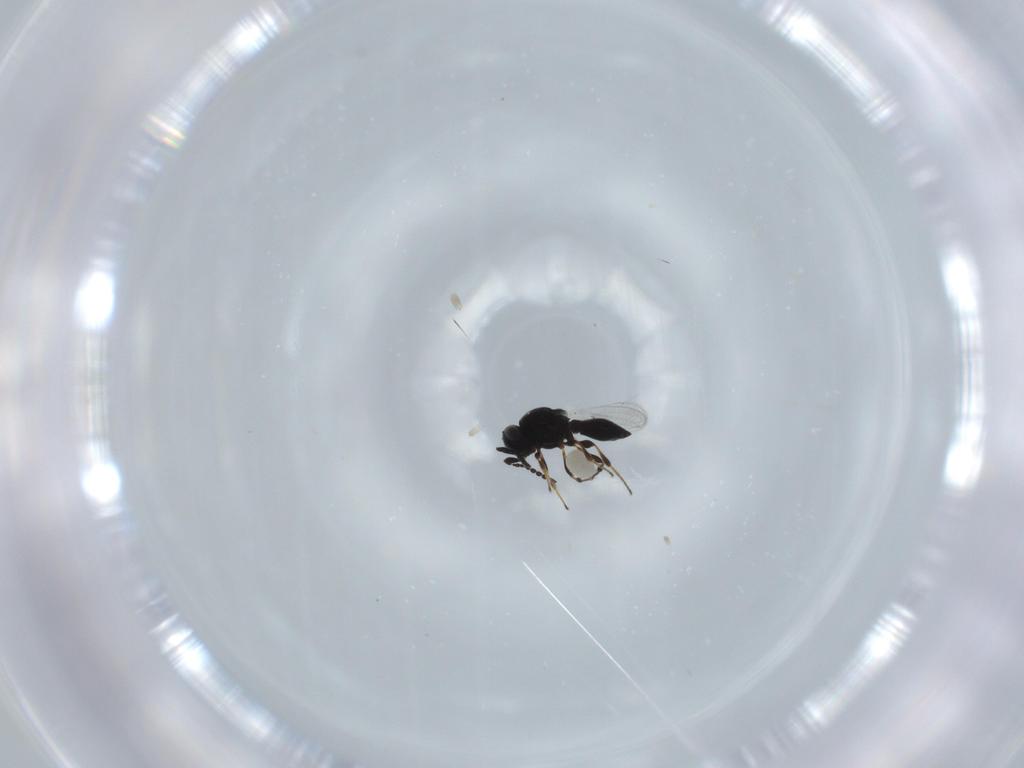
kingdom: Animalia
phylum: Arthropoda
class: Insecta
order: Hymenoptera
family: Platygastridae
